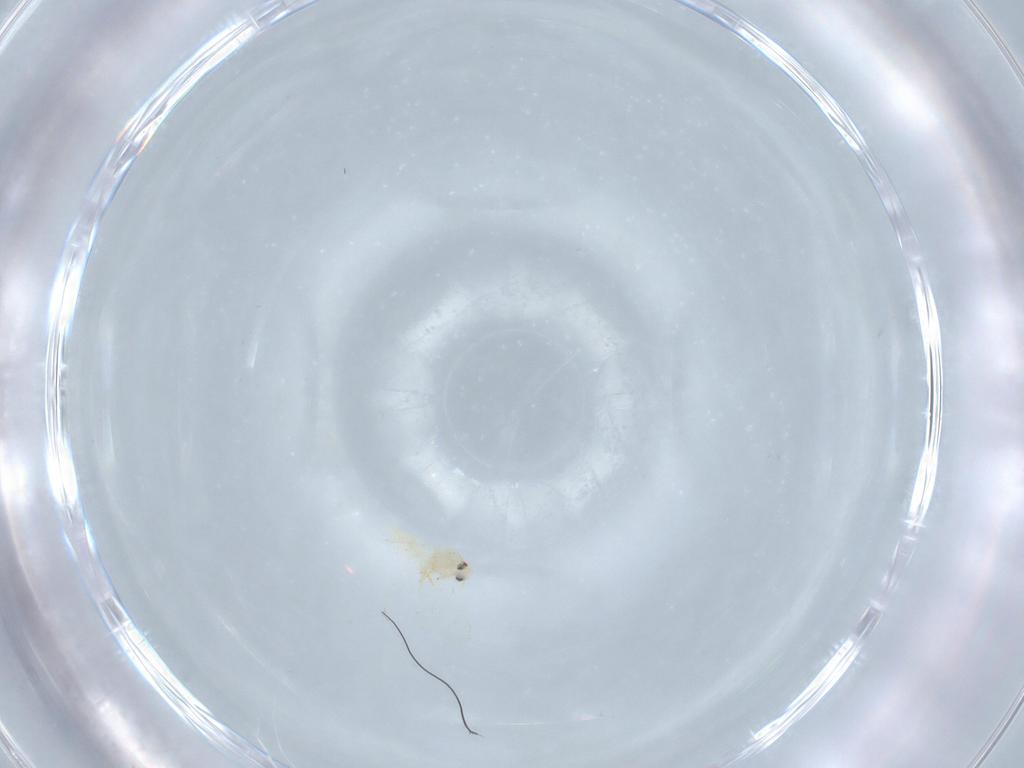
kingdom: Animalia
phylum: Arthropoda
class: Insecta
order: Hemiptera
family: Aleyrodidae
